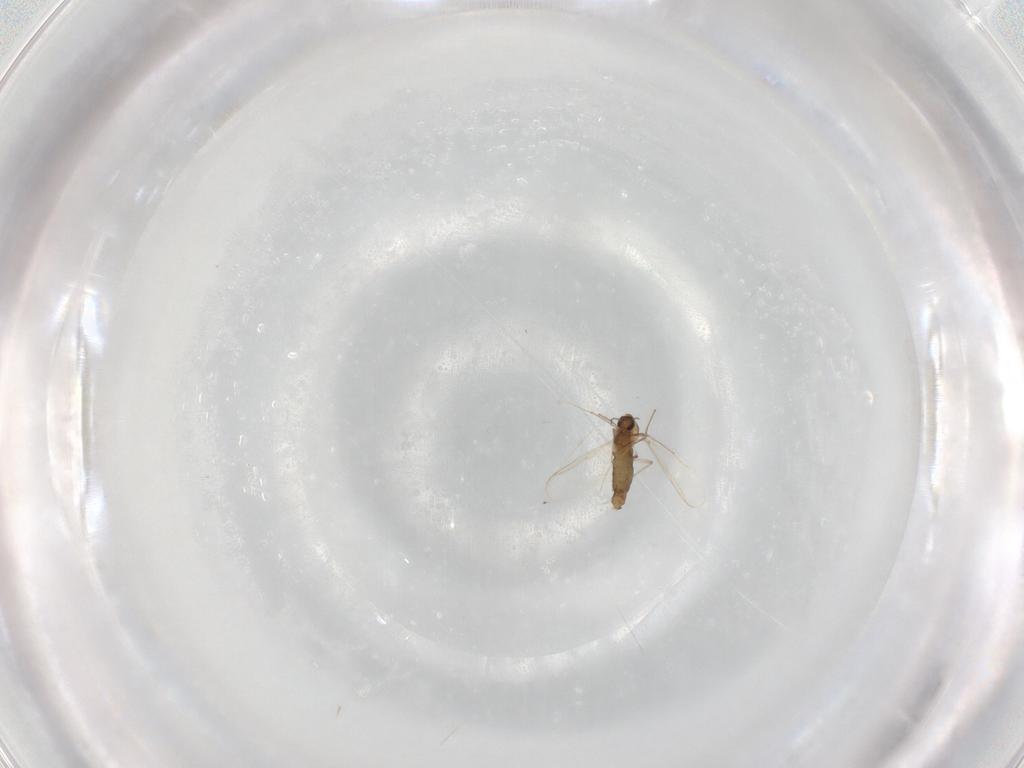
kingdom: Animalia
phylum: Arthropoda
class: Insecta
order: Diptera
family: Chironomidae
